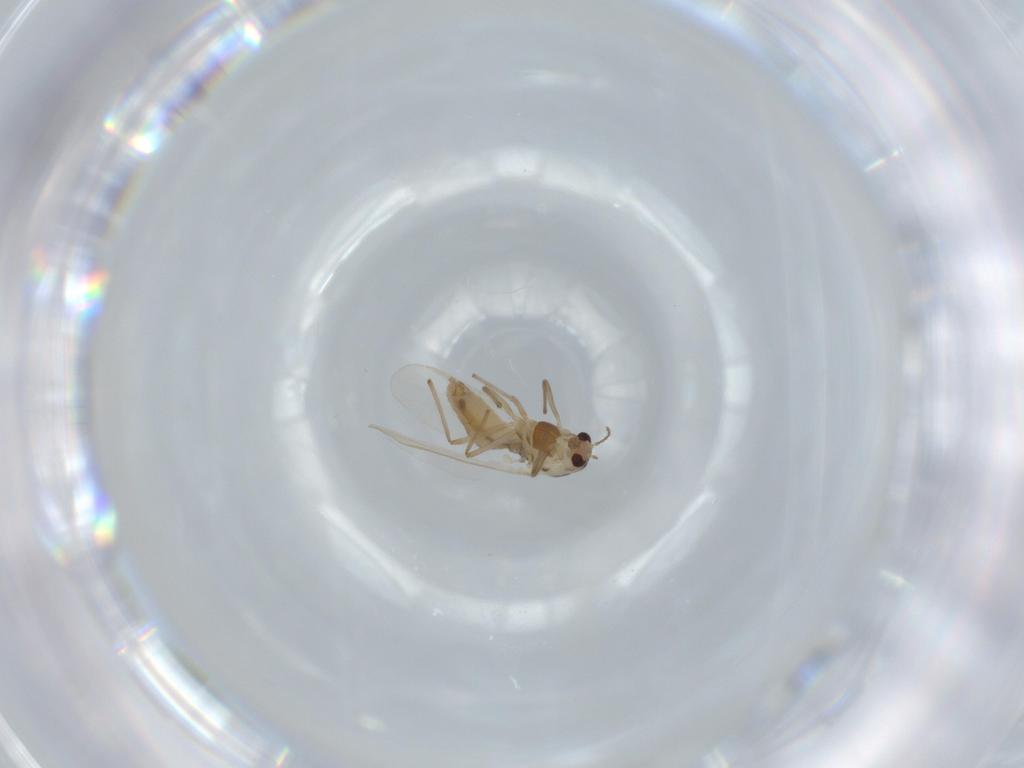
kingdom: Animalia
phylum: Arthropoda
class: Insecta
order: Diptera
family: Chironomidae
